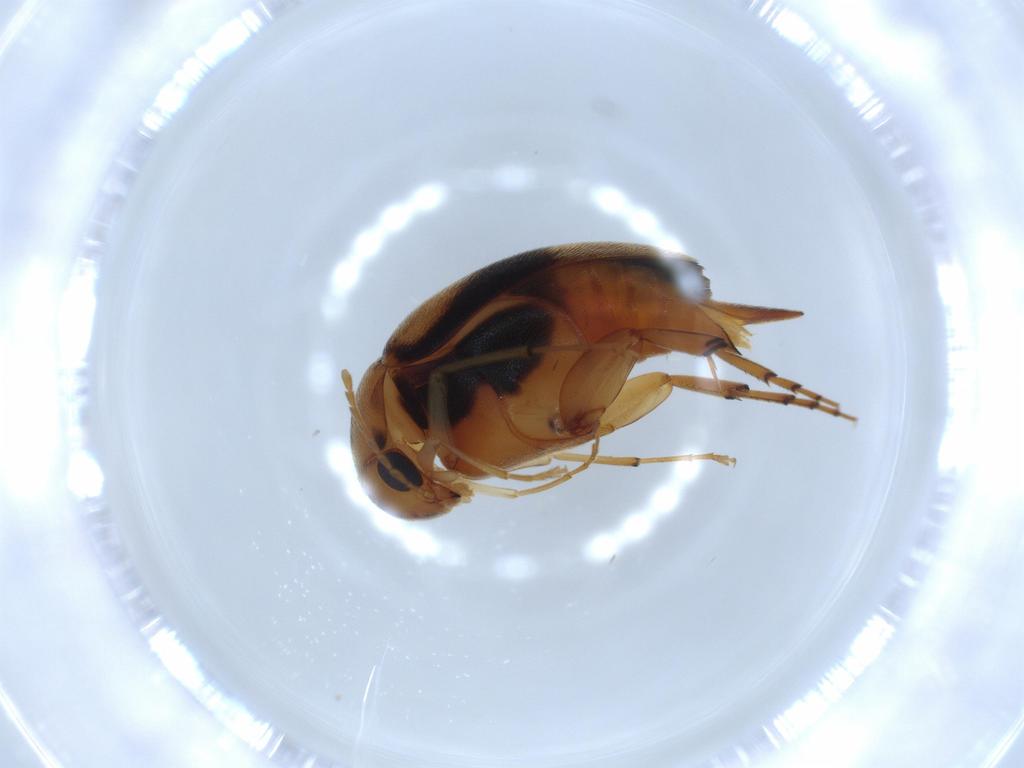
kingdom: Animalia
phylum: Arthropoda
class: Insecta
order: Coleoptera
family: Mordellidae
